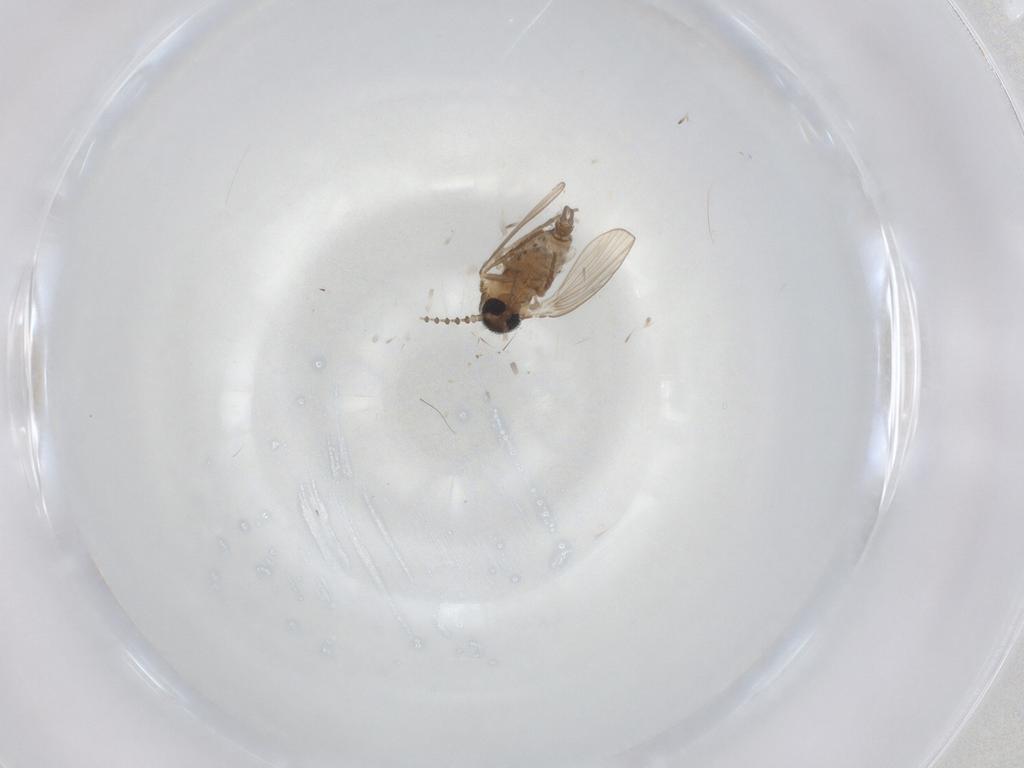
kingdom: Animalia
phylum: Arthropoda
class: Insecta
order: Diptera
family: Psychodidae
